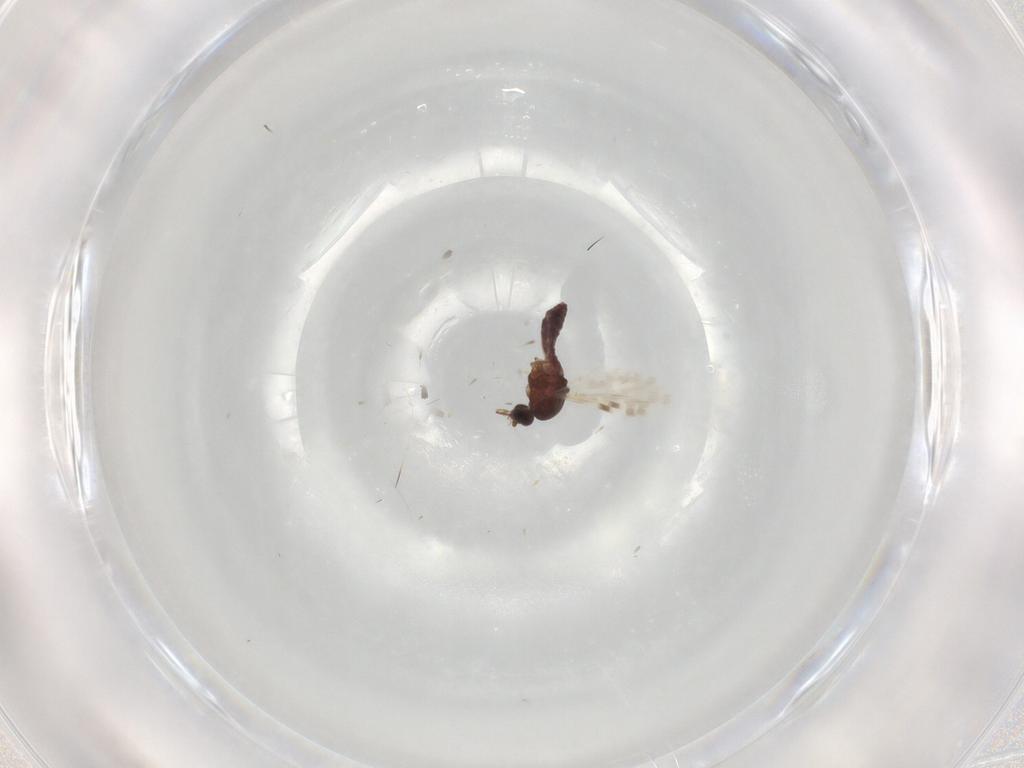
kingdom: Animalia
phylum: Arthropoda
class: Insecta
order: Diptera
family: Ceratopogonidae
